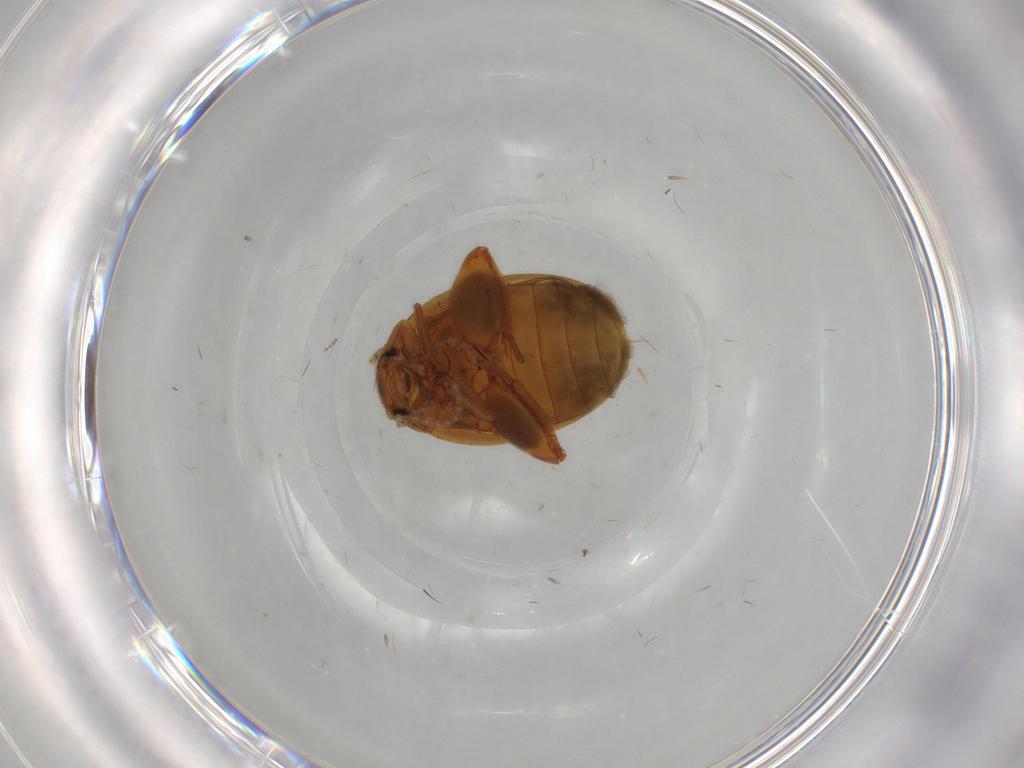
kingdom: Animalia
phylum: Arthropoda
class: Insecta
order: Coleoptera
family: Scirtidae
